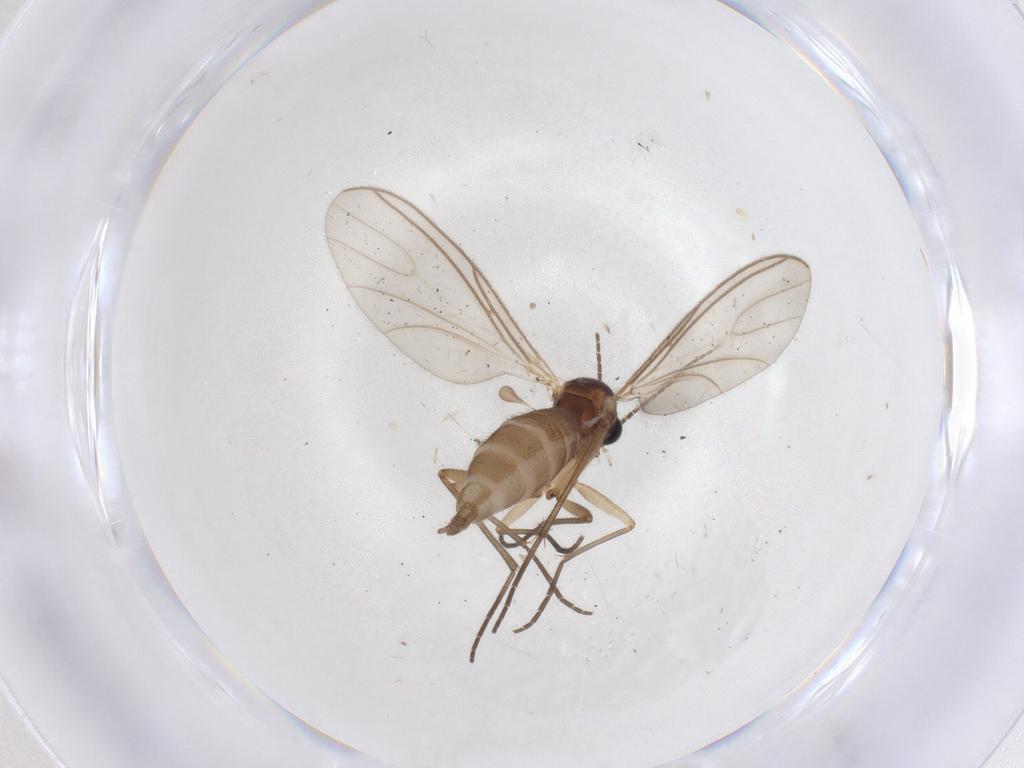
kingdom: Animalia
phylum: Arthropoda
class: Insecta
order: Diptera
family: Sciaridae
